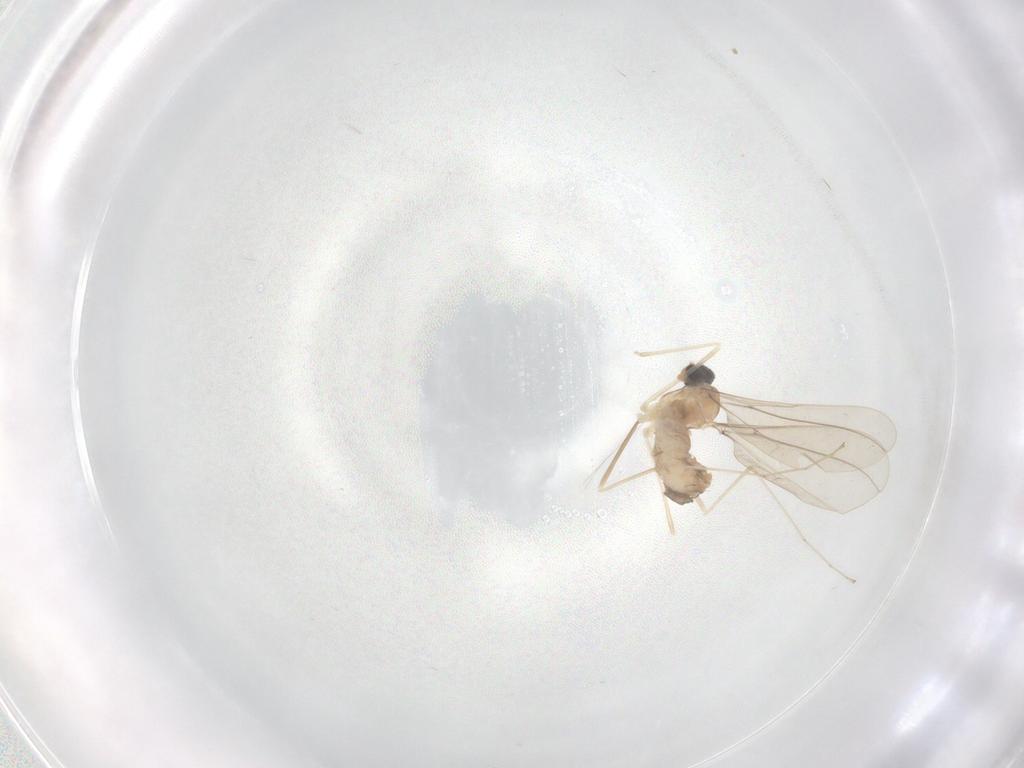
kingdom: Animalia
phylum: Arthropoda
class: Insecta
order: Diptera
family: Cecidomyiidae
